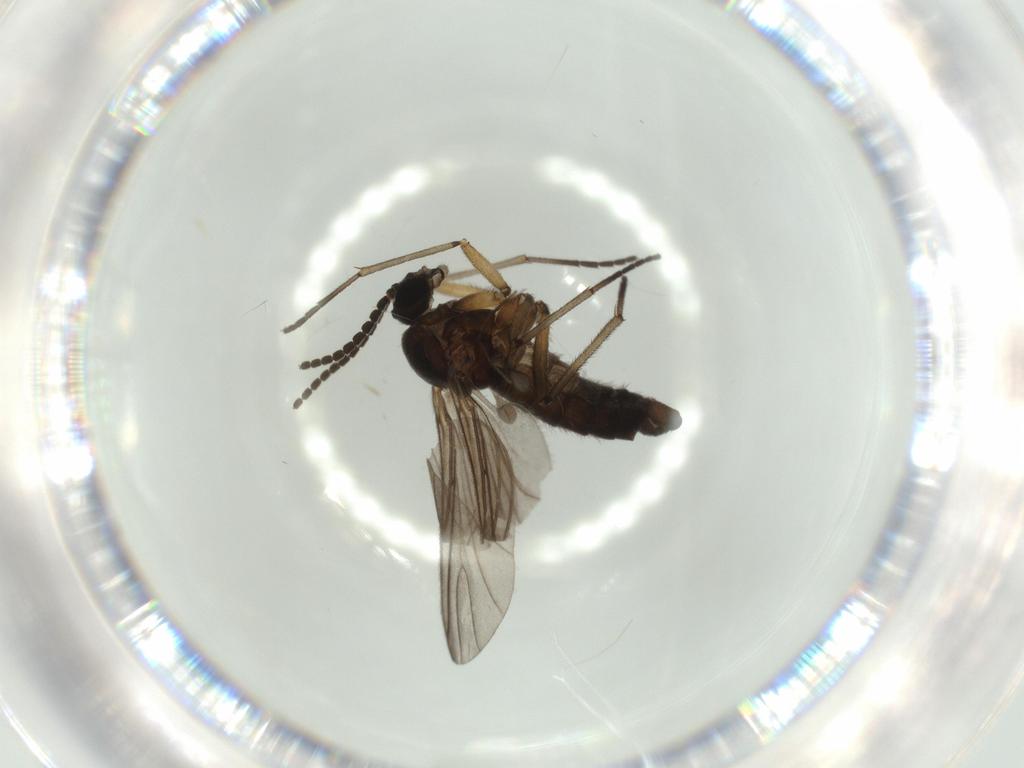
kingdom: Animalia
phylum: Arthropoda
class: Insecta
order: Diptera
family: Sciaridae
